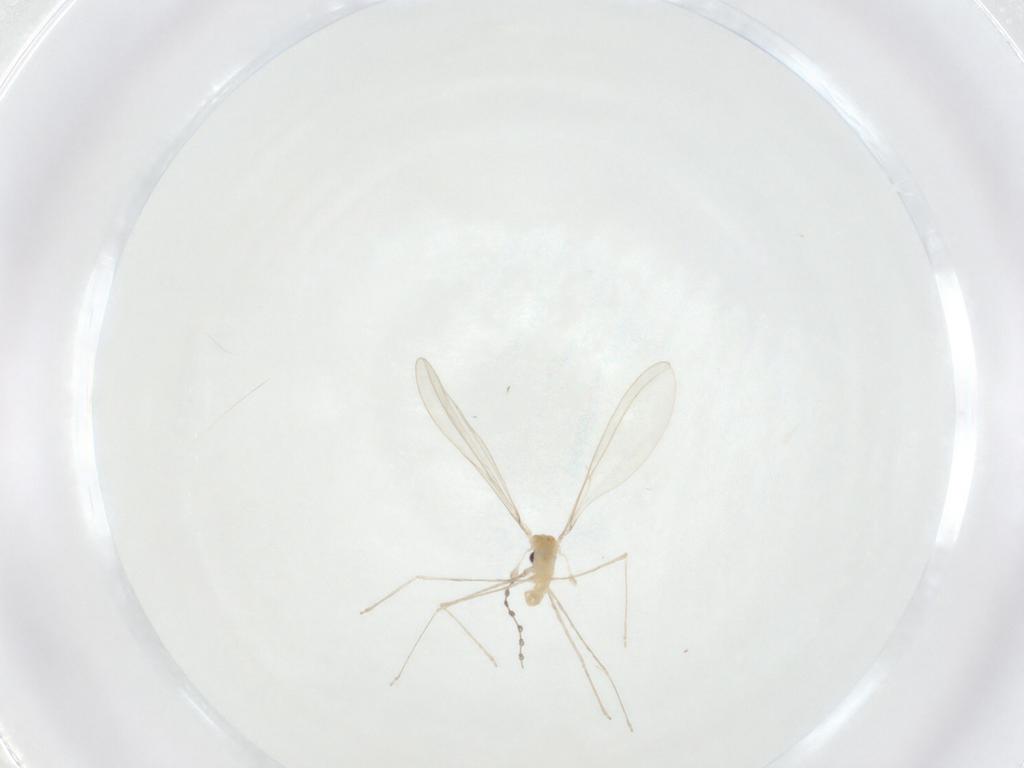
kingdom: Animalia
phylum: Arthropoda
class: Insecta
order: Diptera
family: Cecidomyiidae
